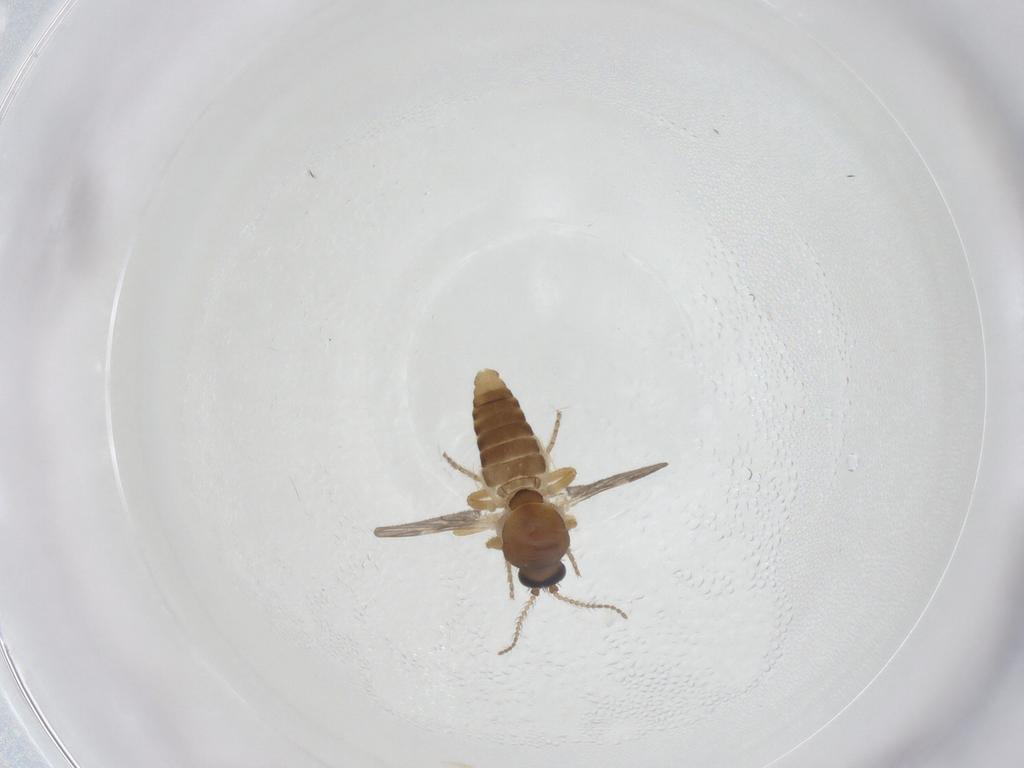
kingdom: Animalia
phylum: Arthropoda
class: Insecta
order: Diptera
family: Ceratopogonidae
